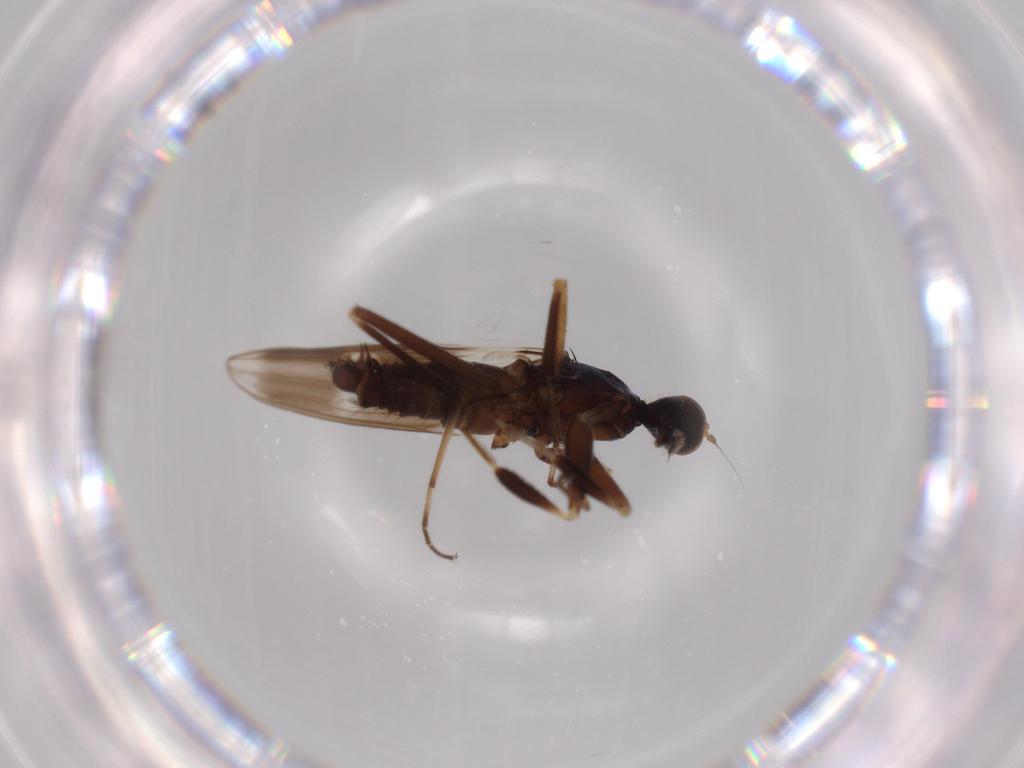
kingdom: Animalia
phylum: Arthropoda
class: Insecta
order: Diptera
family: Hybotidae
